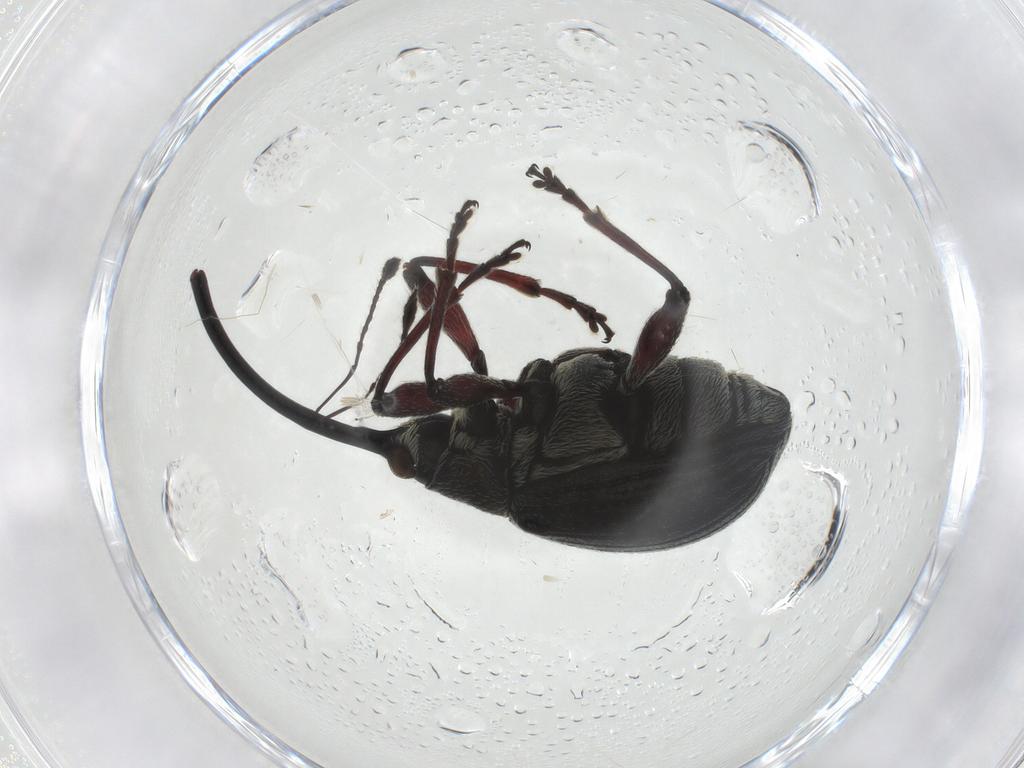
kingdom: Animalia
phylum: Arthropoda
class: Insecta
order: Coleoptera
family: Brentidae
